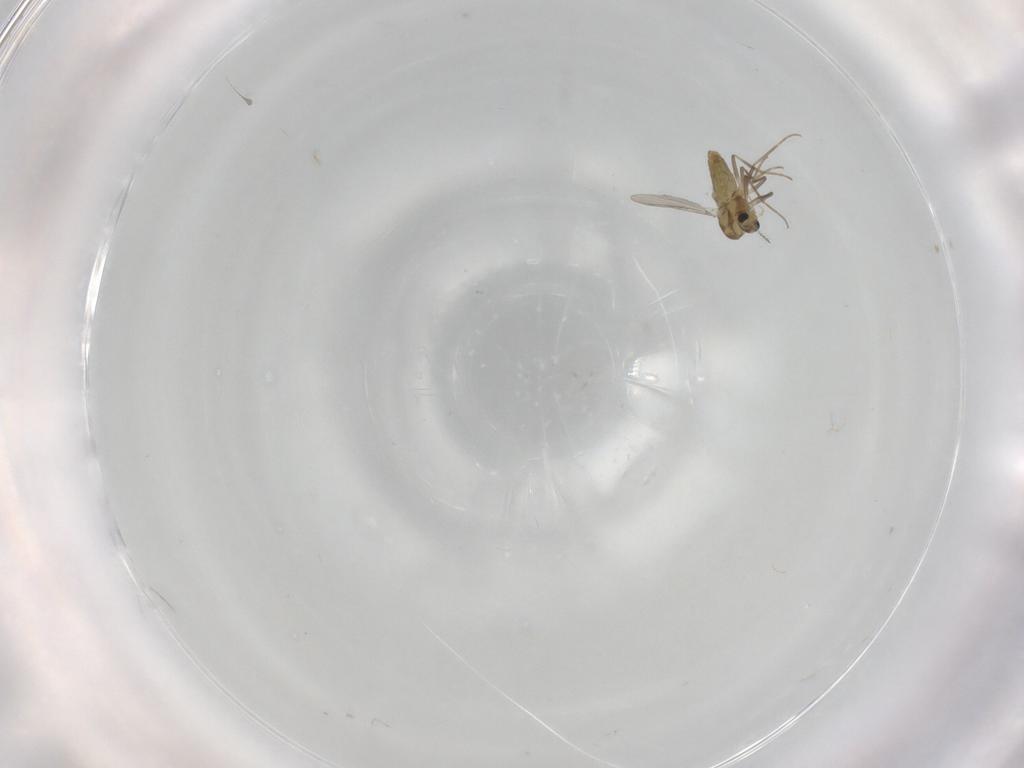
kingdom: Animalia
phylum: Arthropoda
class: Insecta
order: Diptera
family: Chironomidae
